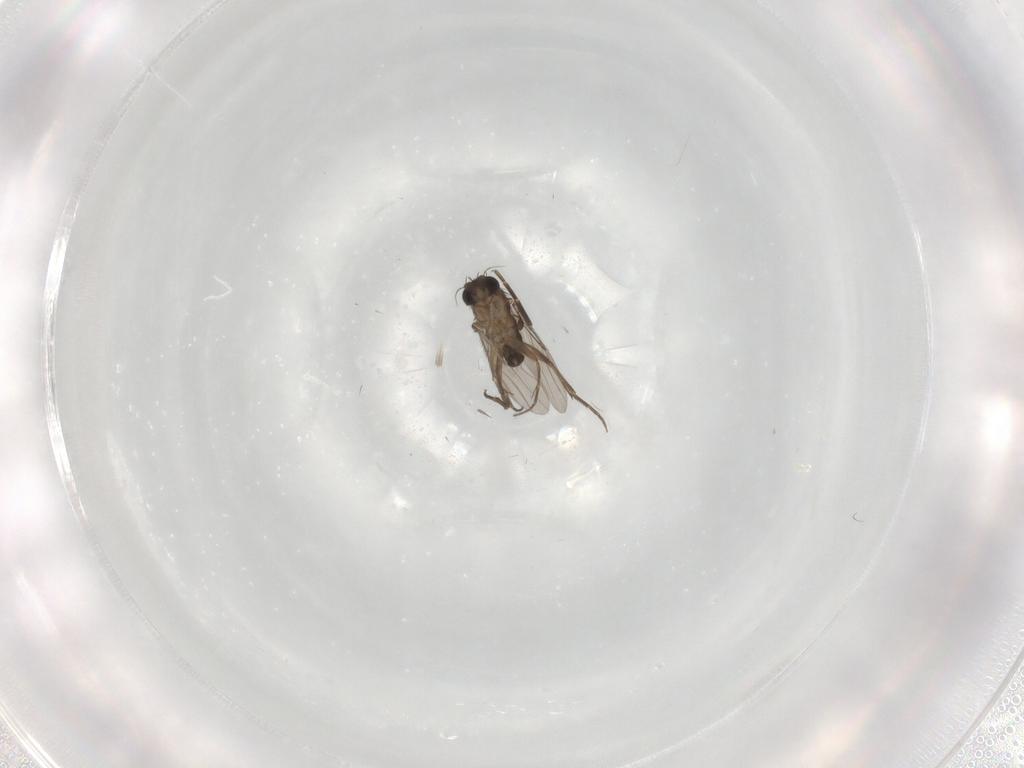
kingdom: Animalia
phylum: Arthropoda
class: Insecta
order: Diptera
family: Phoridae
